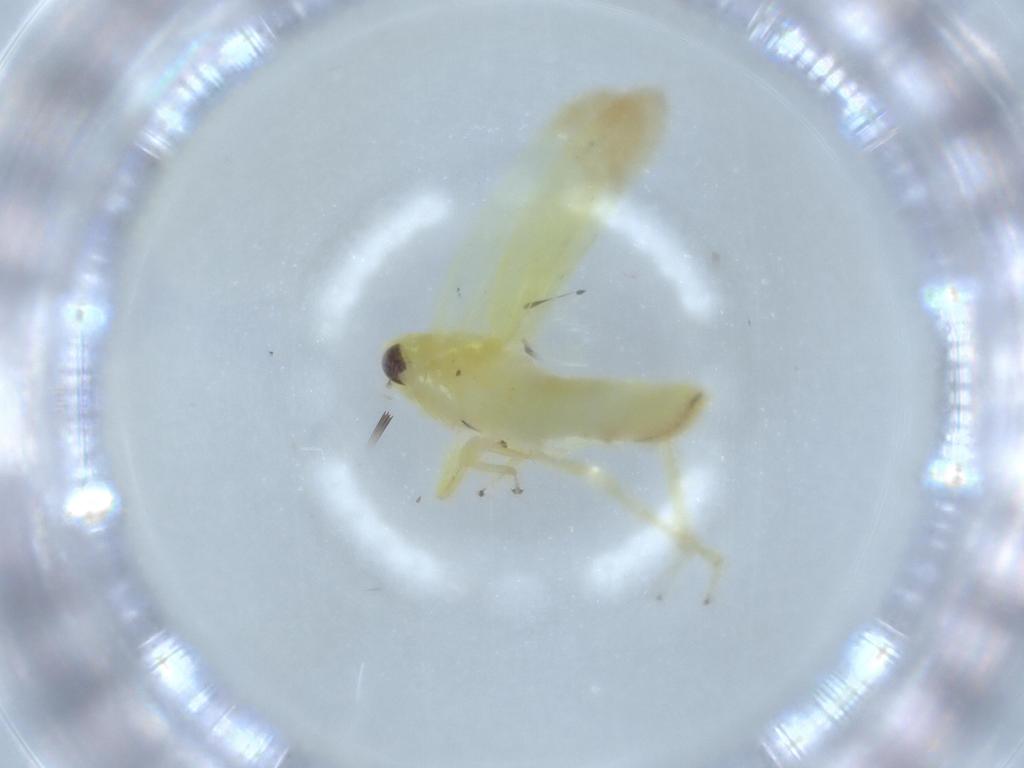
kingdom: Animalia
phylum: Arthropoda
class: Insecta
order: Hemiptera
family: Cicadellidae
